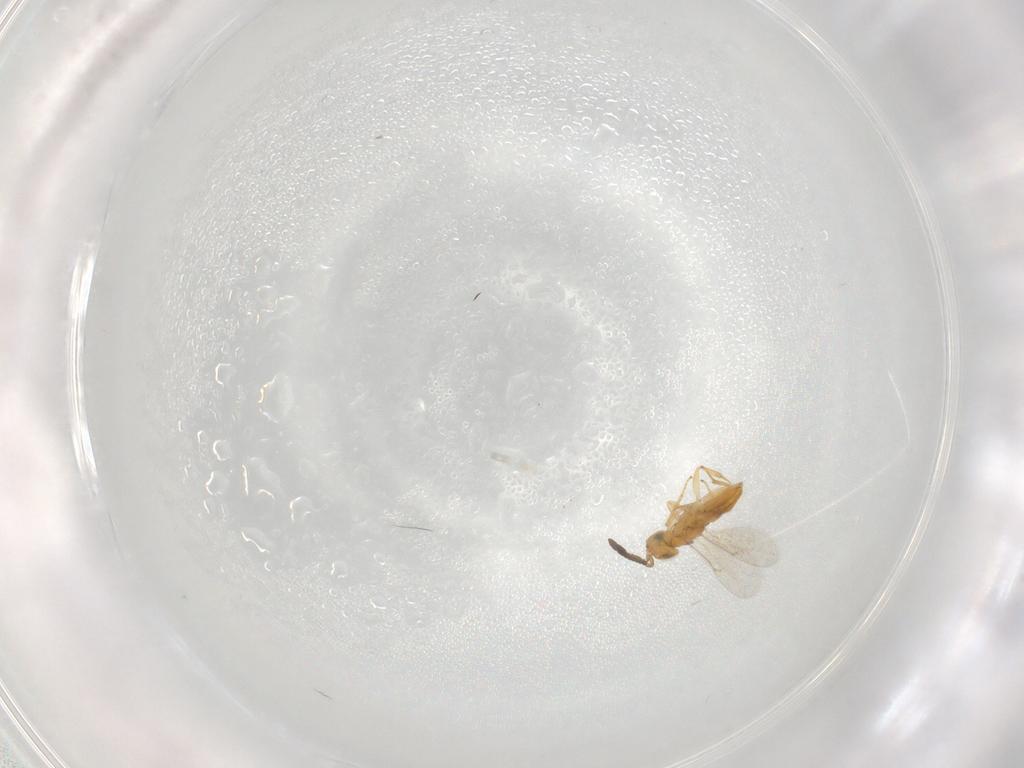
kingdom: Animalia
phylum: Arthropoda
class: Insecta
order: Hymenoptera
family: Encyrtidae
